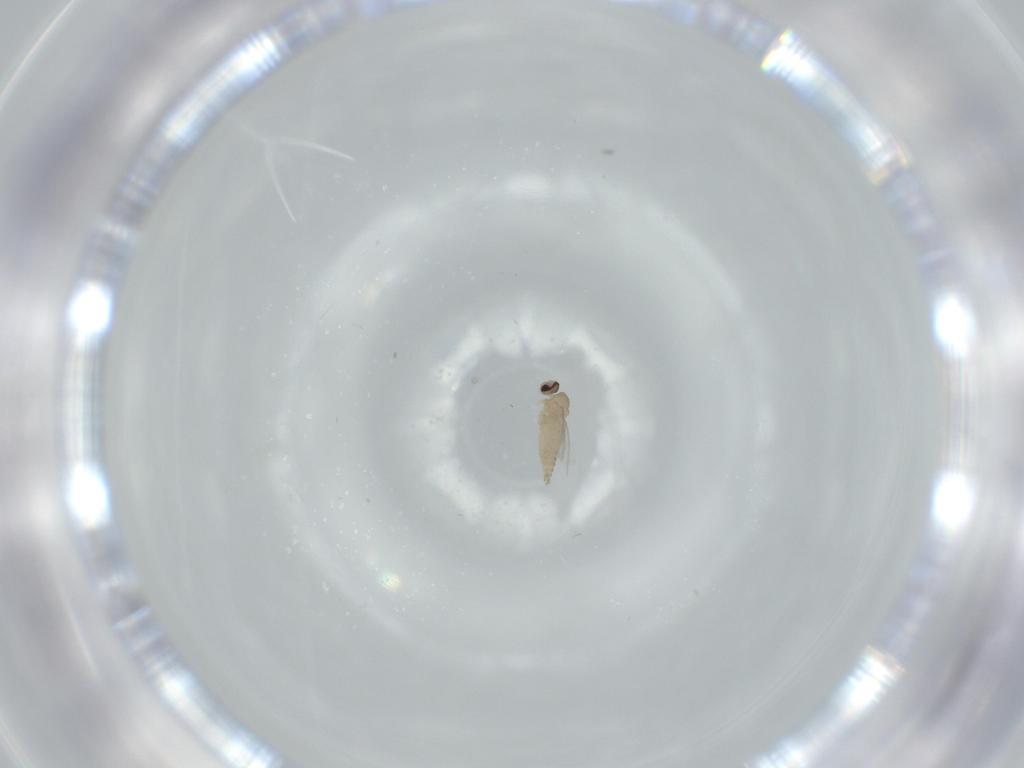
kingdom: Animalia
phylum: Arthropoda
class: Insecta
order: Diptera
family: Cecidomyiidae
